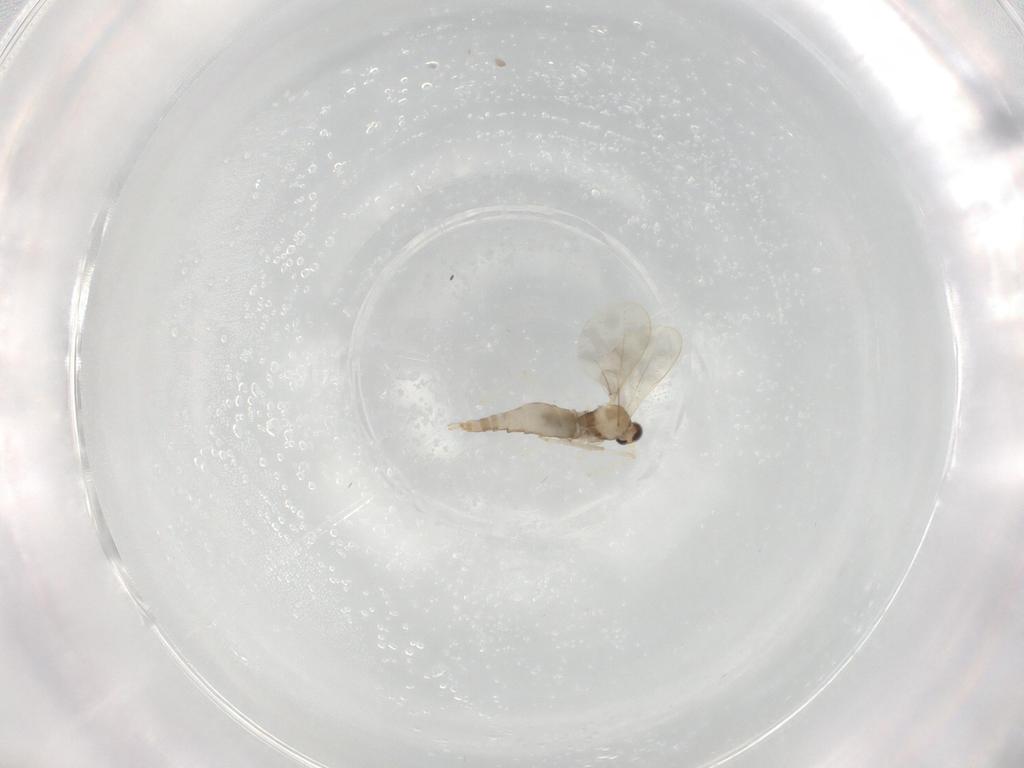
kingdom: Animalia
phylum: Arthropoda
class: Insecta
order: Diptera
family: Cecidomyiidae
